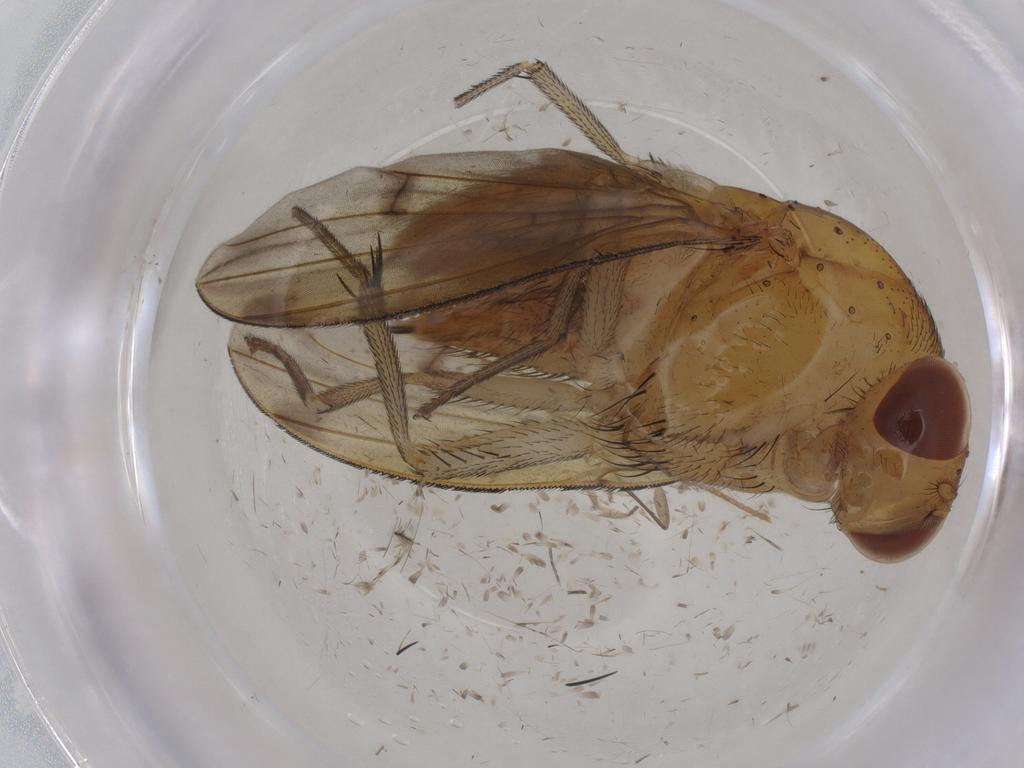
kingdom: Animalia
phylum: Arthropoda
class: Insecta
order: Diptera
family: Cecidomyiidae
